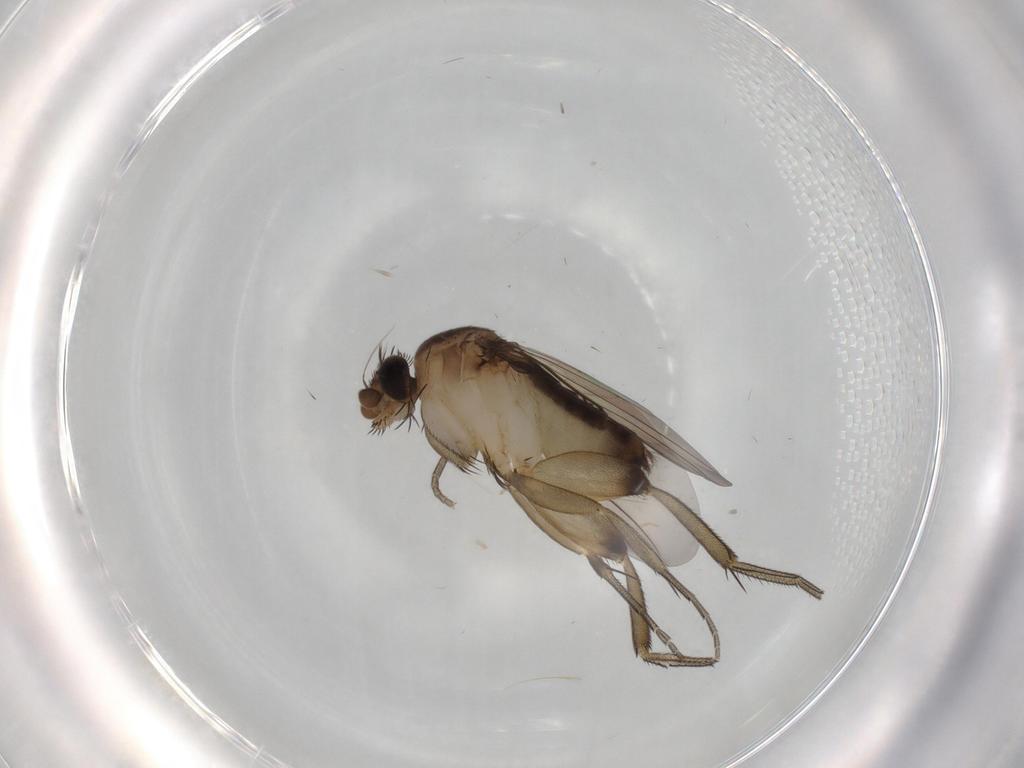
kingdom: Animalia
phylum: Arthropoda
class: Insecta
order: Diptera
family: Phoridae
